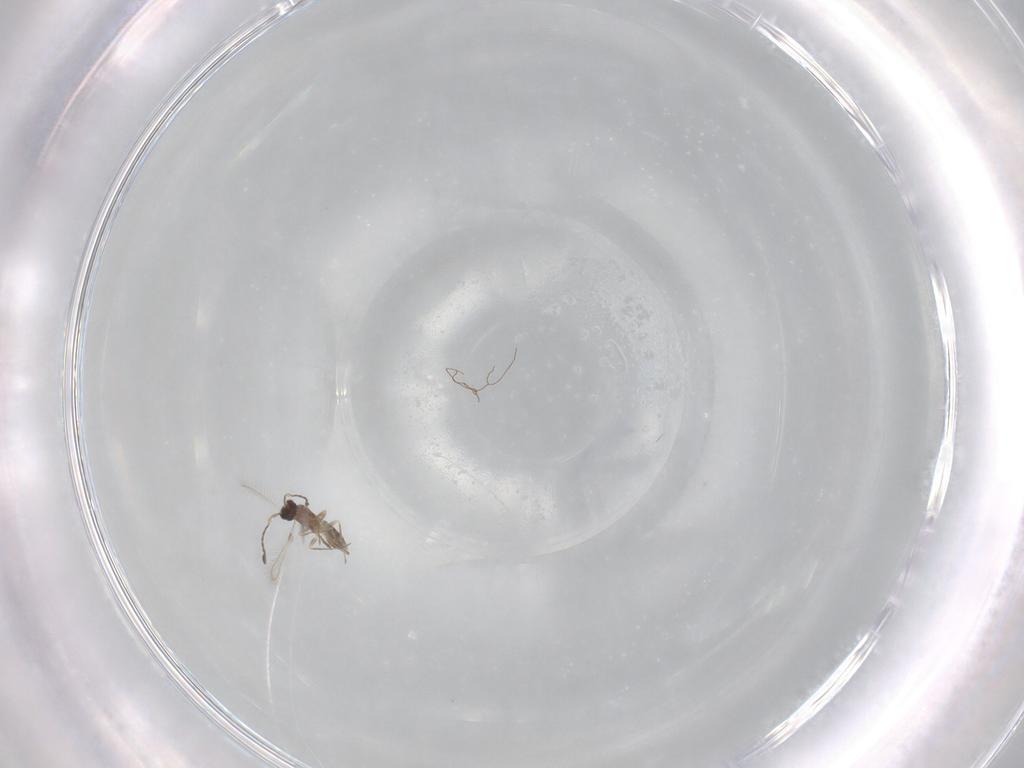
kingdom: Animalia
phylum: Arthropoda
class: Insecta
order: Hymenoptera
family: Mymaridae
